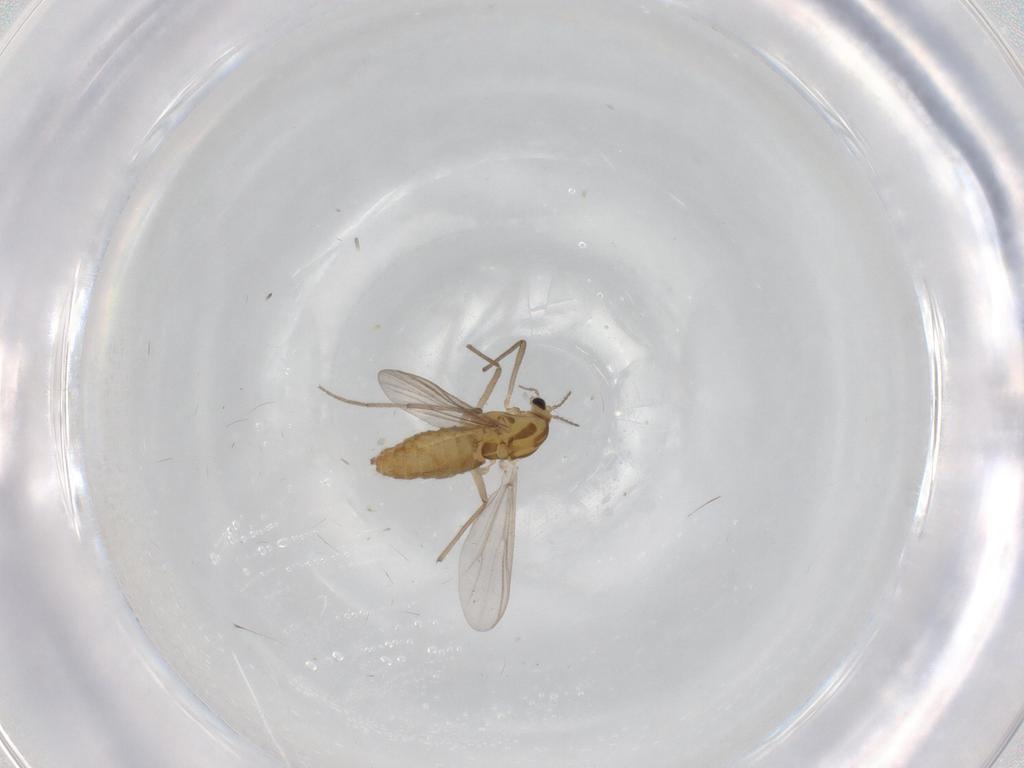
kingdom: Animalia
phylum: Arthropoda
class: Insecta
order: Diptera
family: Chironomidae
